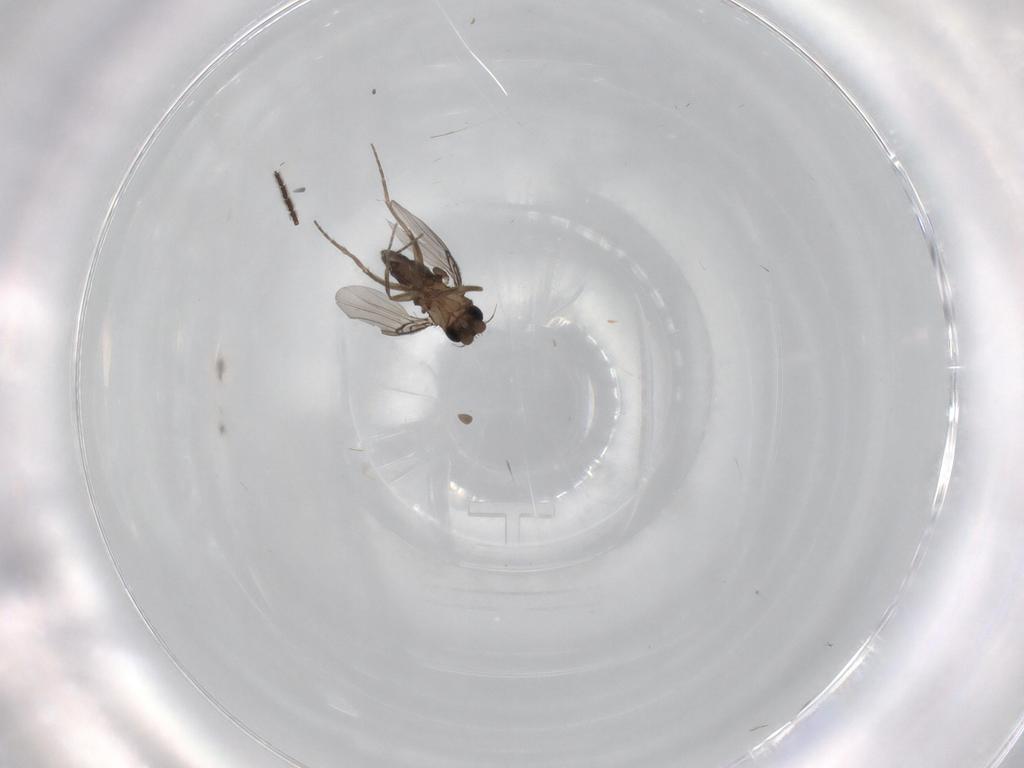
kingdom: Animalia
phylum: Arthropoda
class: Insecta
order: Diptera
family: Sciaridae
